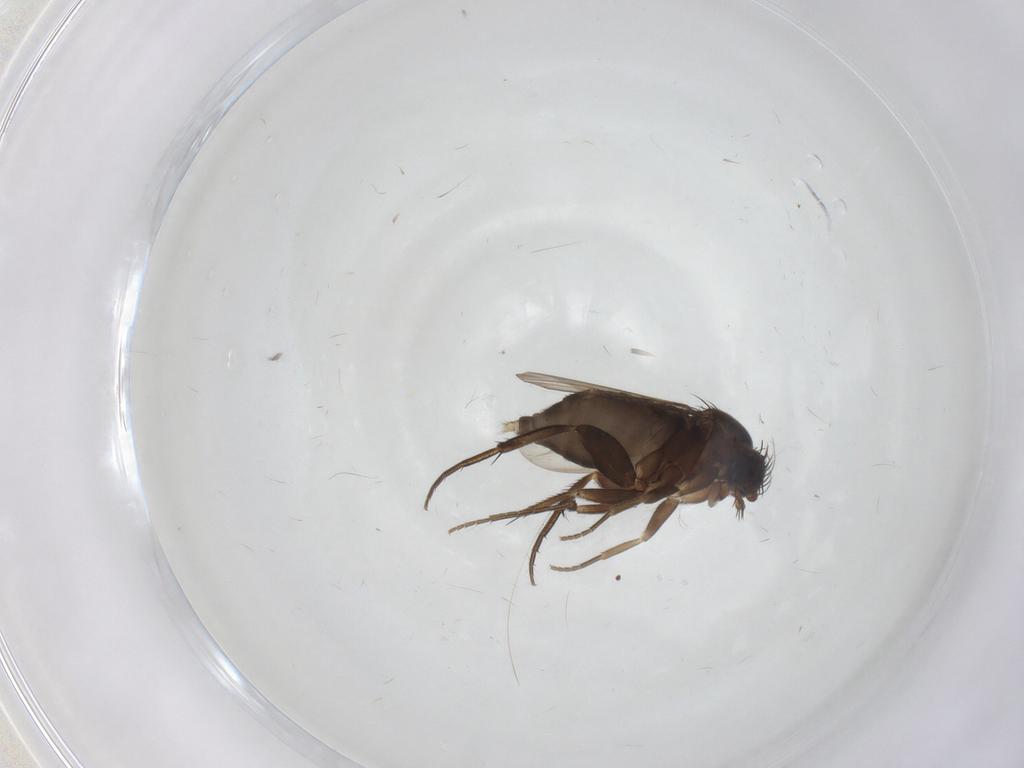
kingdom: Animalia
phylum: Arthropoda
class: Insecta
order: Diptera
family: Phoridae
